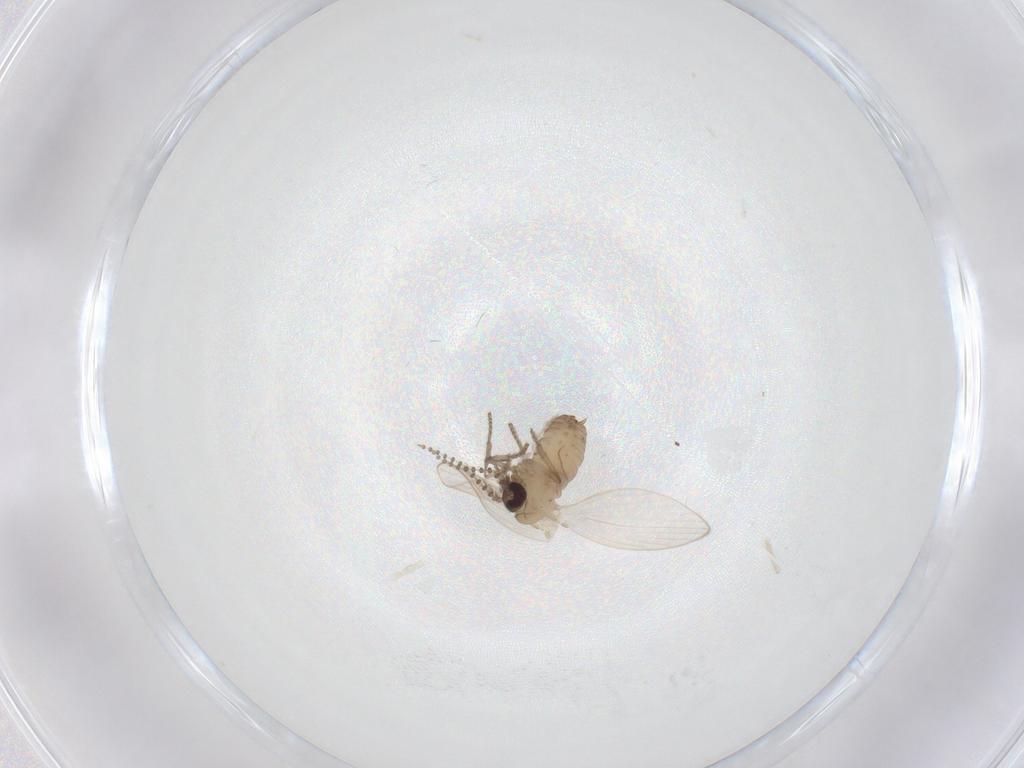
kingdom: Animalia
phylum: Arthropoda
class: Insecta
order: Diptera
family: Psychodidae
